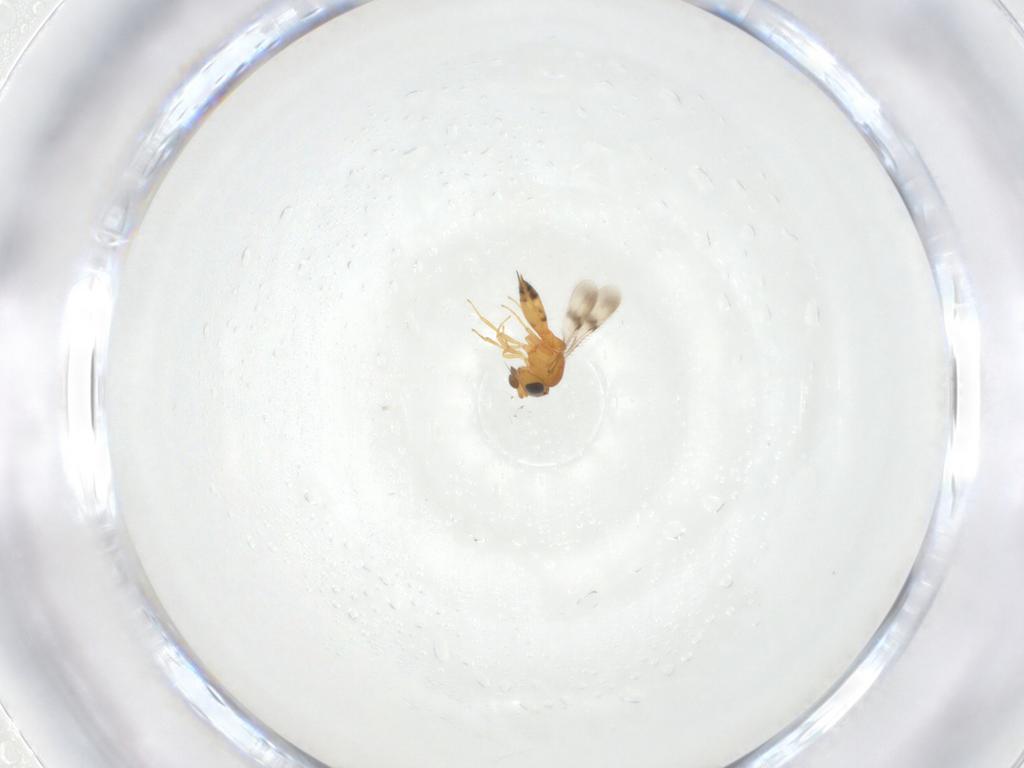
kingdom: Animalia
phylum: Arthropoda
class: Insecta
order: Hymenoptera
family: Scelionidae
